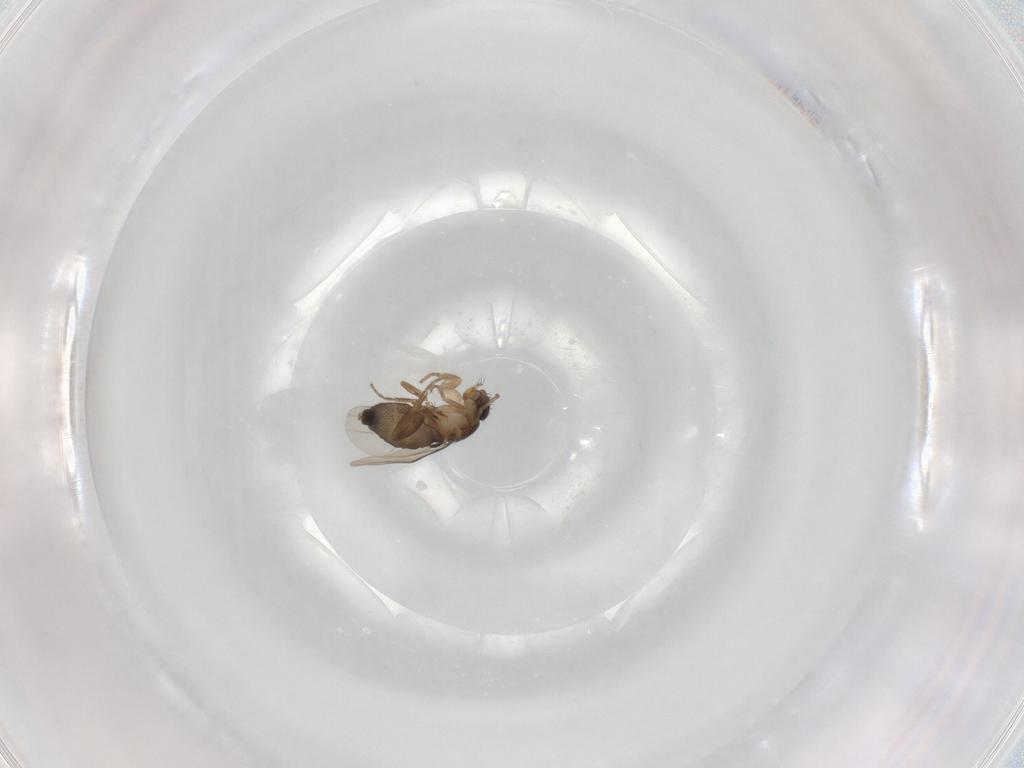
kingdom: Animalia
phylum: Arthropoda
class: Insecta
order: Diptera
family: Phoridae
